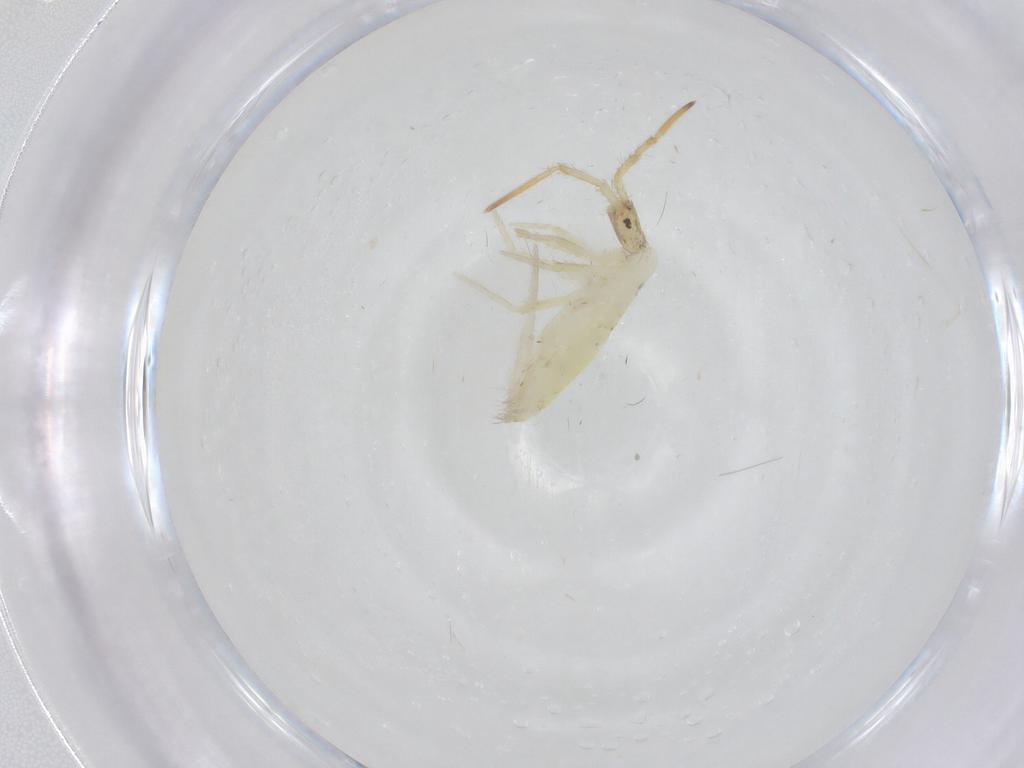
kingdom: Animalia
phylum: Arthropoda
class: Collembola
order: Entomobryomorpha
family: Entomobryidae
